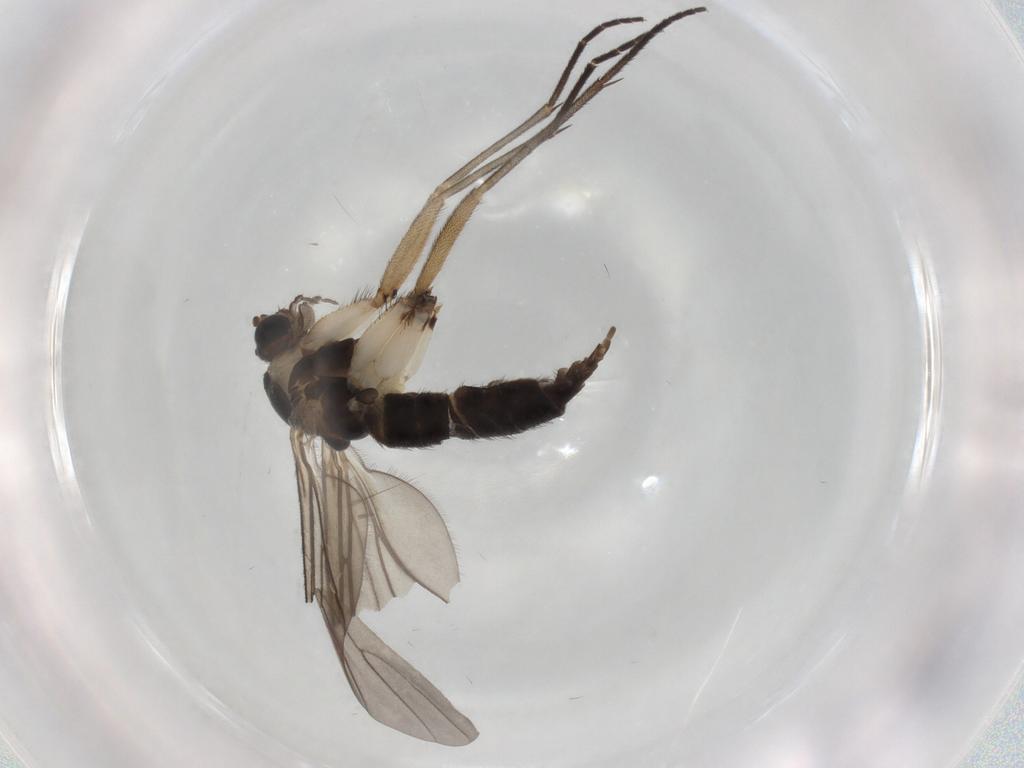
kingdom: Animalia
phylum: Arthropoda
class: Insecta
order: Diptera
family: Sciaridae
